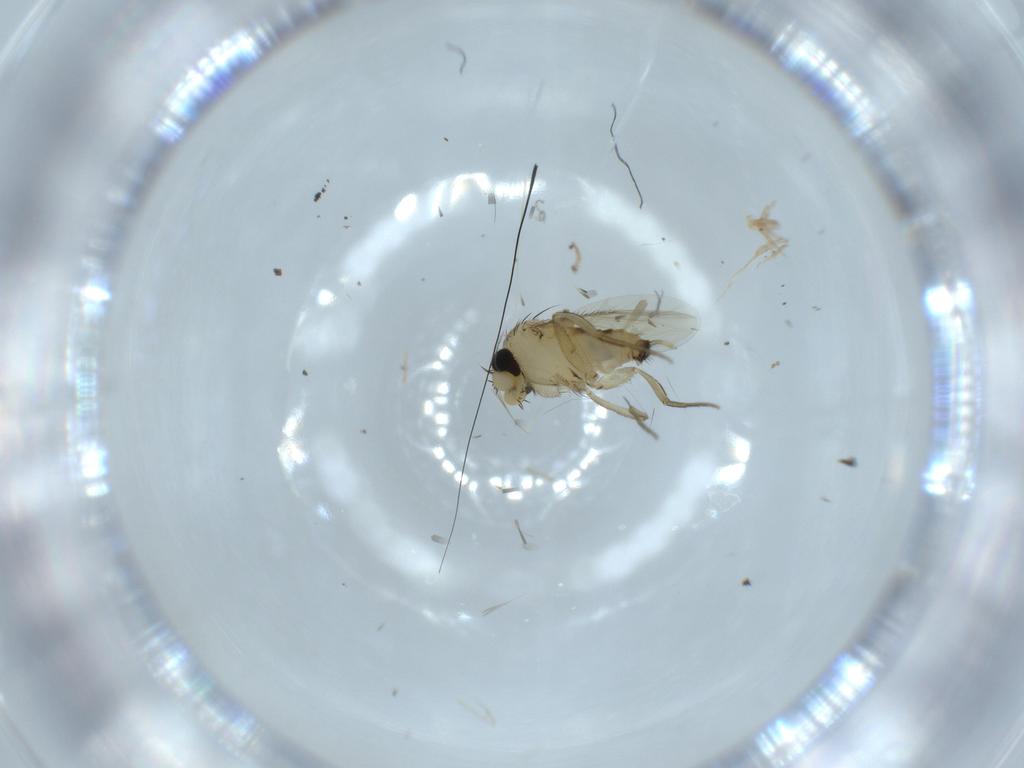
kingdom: Animalia
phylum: Arthropoda
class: Insecta
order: Diptera
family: Phoridae
